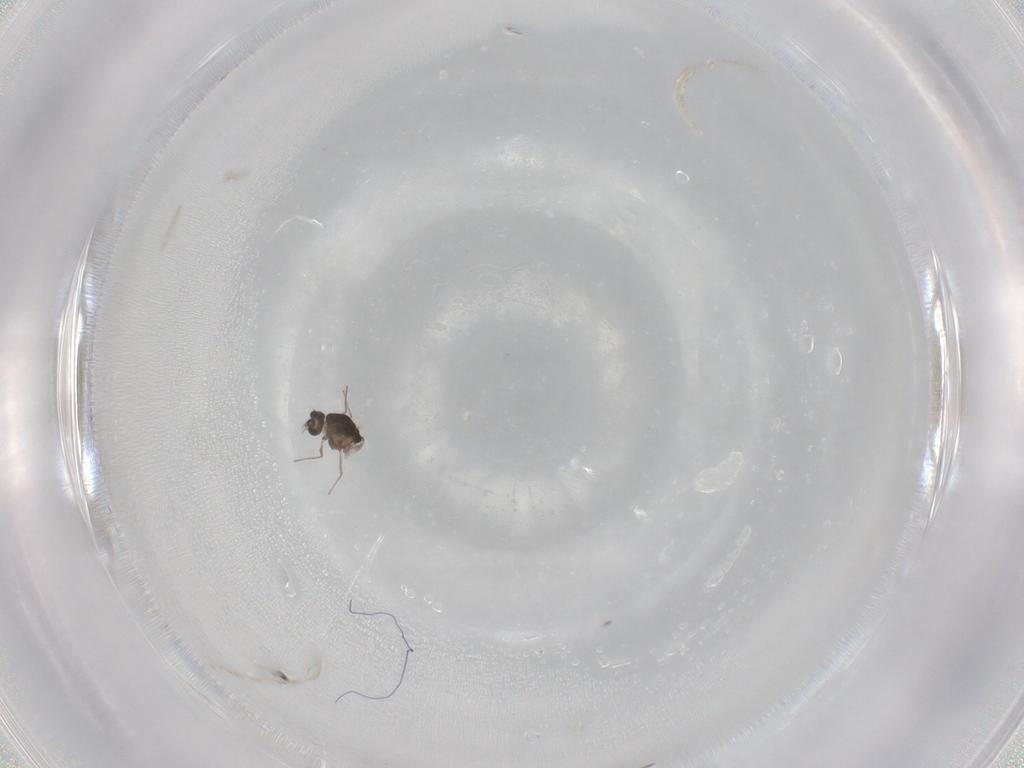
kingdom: Animalia
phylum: Arthropoda
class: Insecta
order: Diptera
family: Chironomidae
